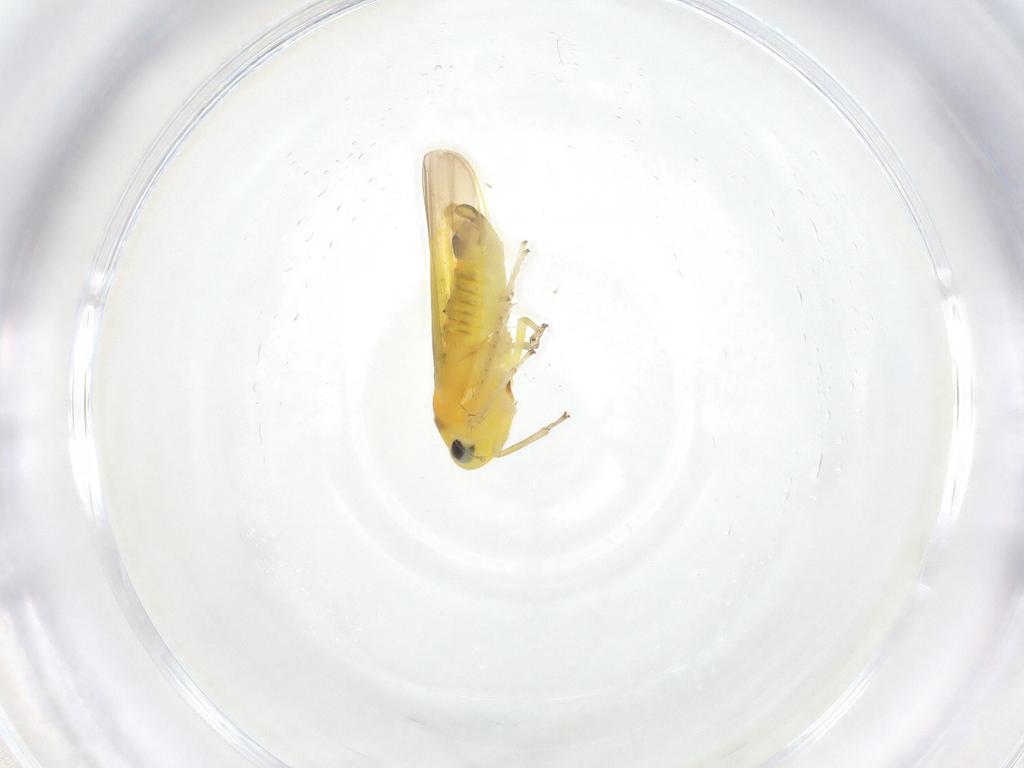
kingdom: Animalia
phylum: Arthropoda
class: Insecta
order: Hemiptera
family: Cicadellidae
